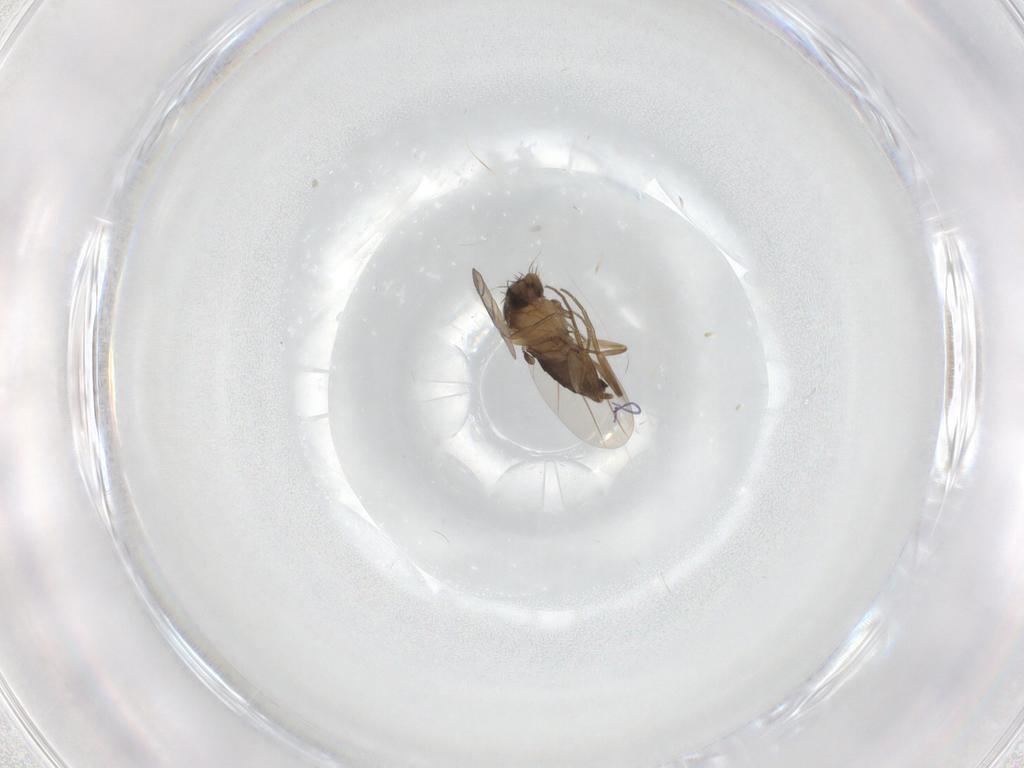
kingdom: Animalia
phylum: Arthropoda
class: Insecta
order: Diptera
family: Phoridae
